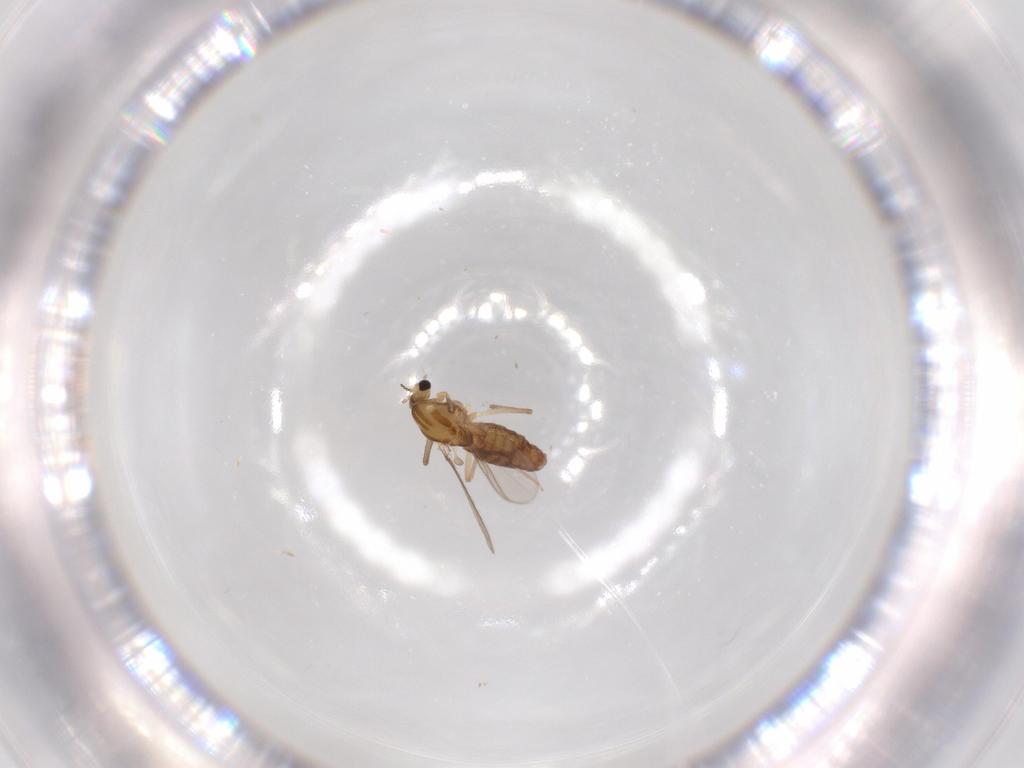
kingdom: Animalia
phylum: Arthropoda
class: Insecta
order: Diptera
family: Chironomidae
